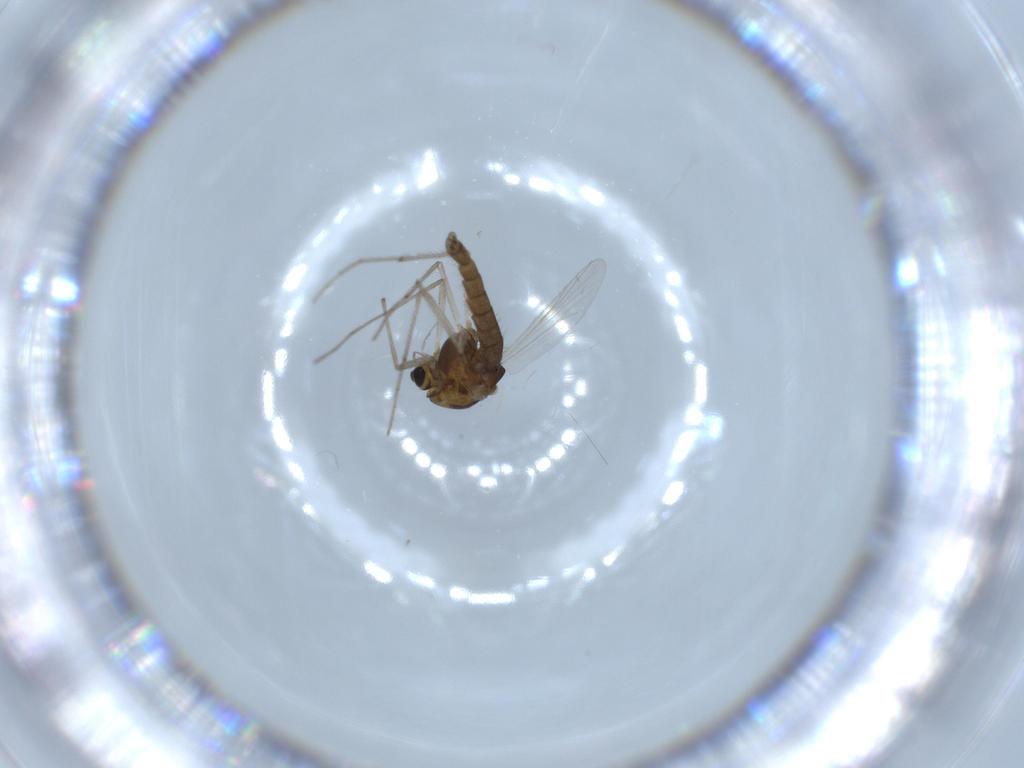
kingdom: Animalia
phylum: Arthropoda
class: Insecta
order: Diptera
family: Chironomidae
